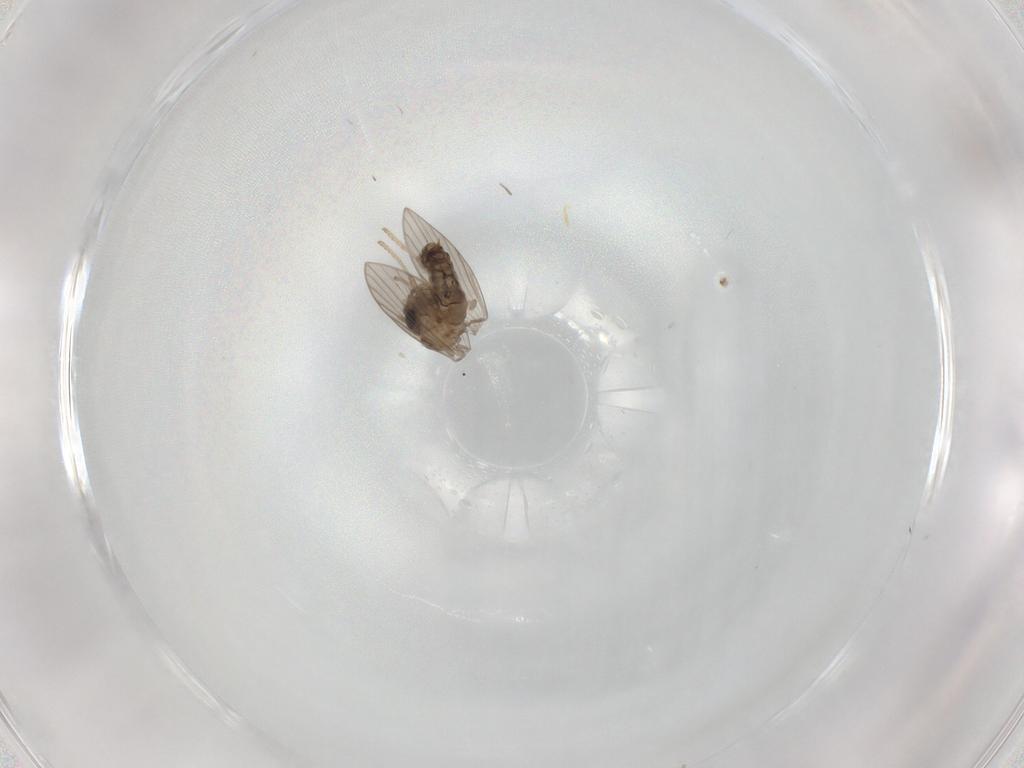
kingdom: Animalia
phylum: Arthropoda
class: Insecta
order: Diptera
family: Psychodidae
